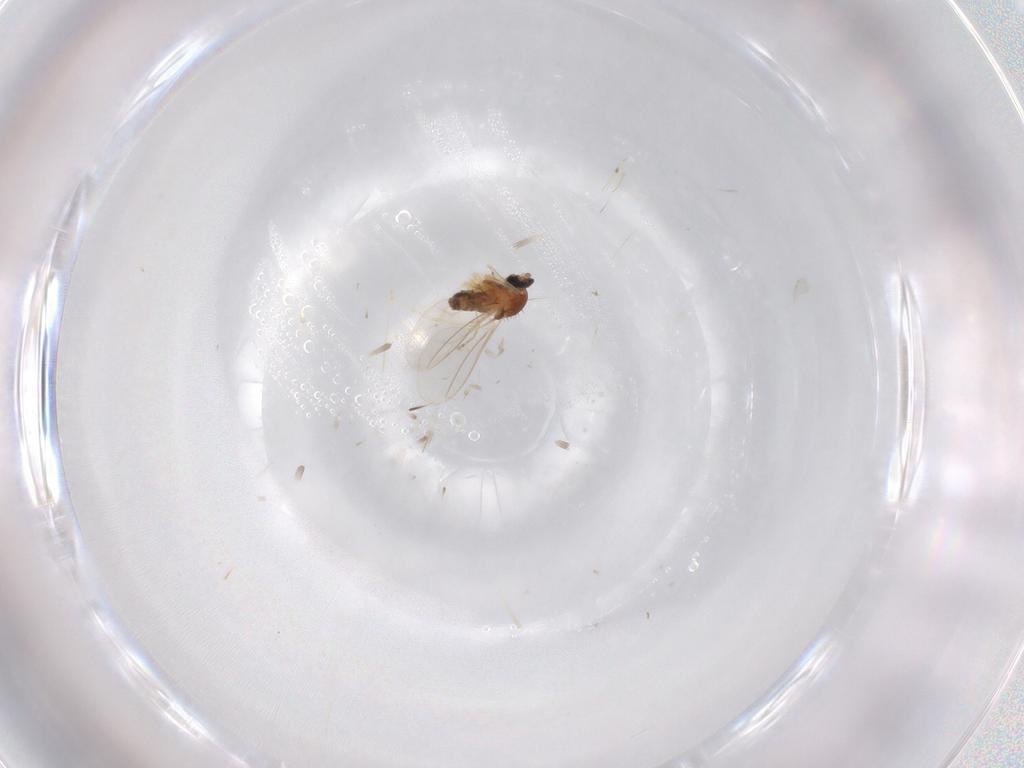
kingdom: Animalia
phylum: Arthropoda
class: Insecta
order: Diptera
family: Cecidomyiidae
